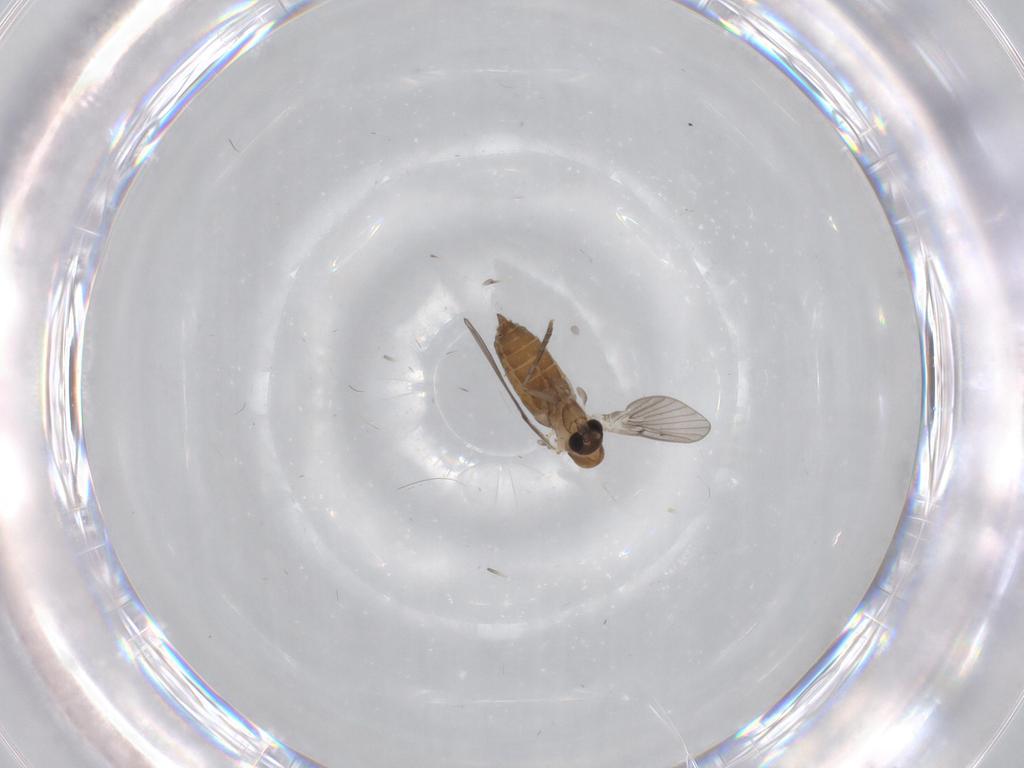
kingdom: Animalia
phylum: Arthropoda
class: Insecta
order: Diptera
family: Psychodidae
